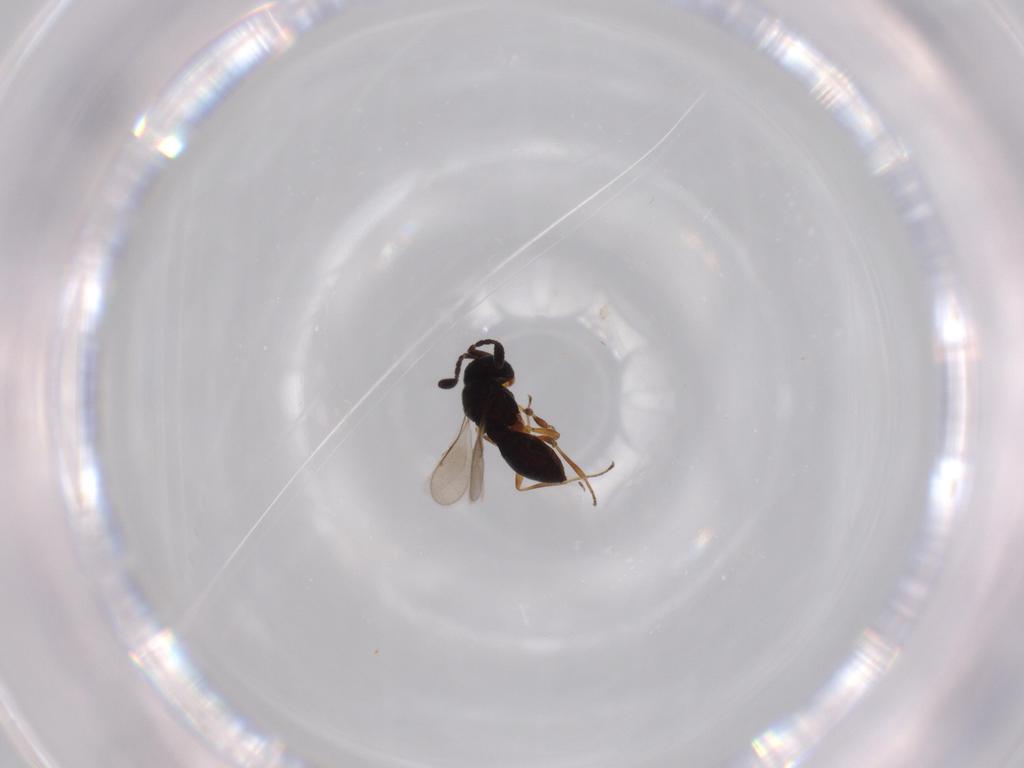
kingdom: Animalia
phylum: Arthropoda
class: Insecta
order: Hymenoptera
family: Scelionidae
